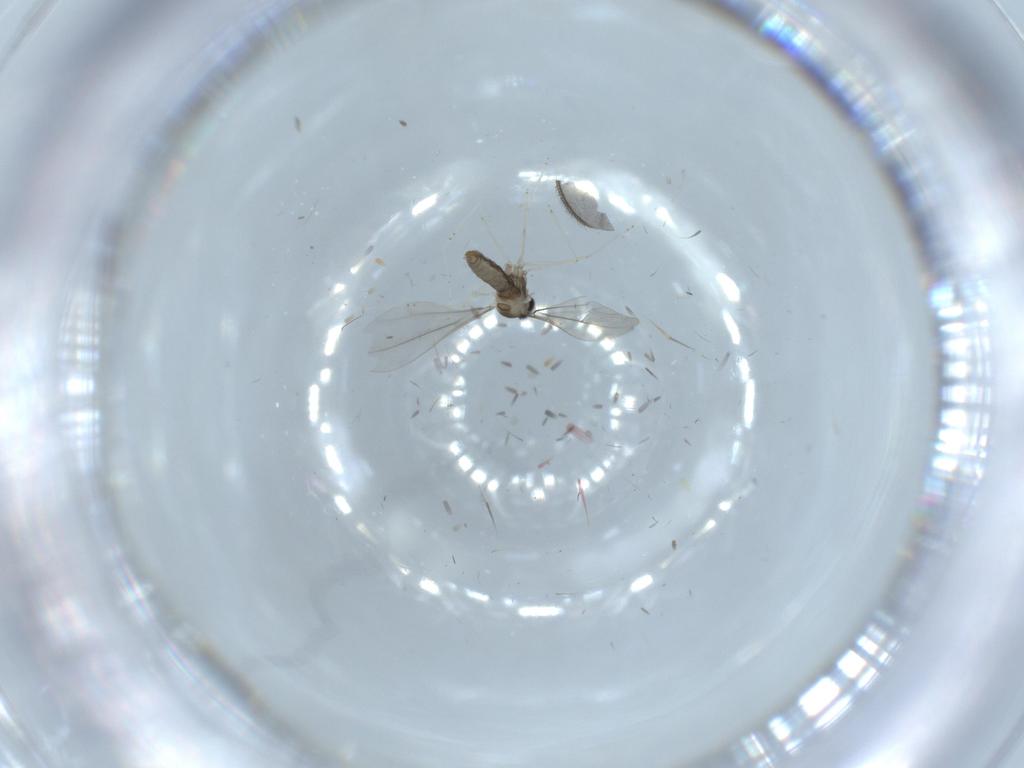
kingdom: Animalia
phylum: Arthropoda
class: Insecta
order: Diptera
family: Cecidomyiidae
